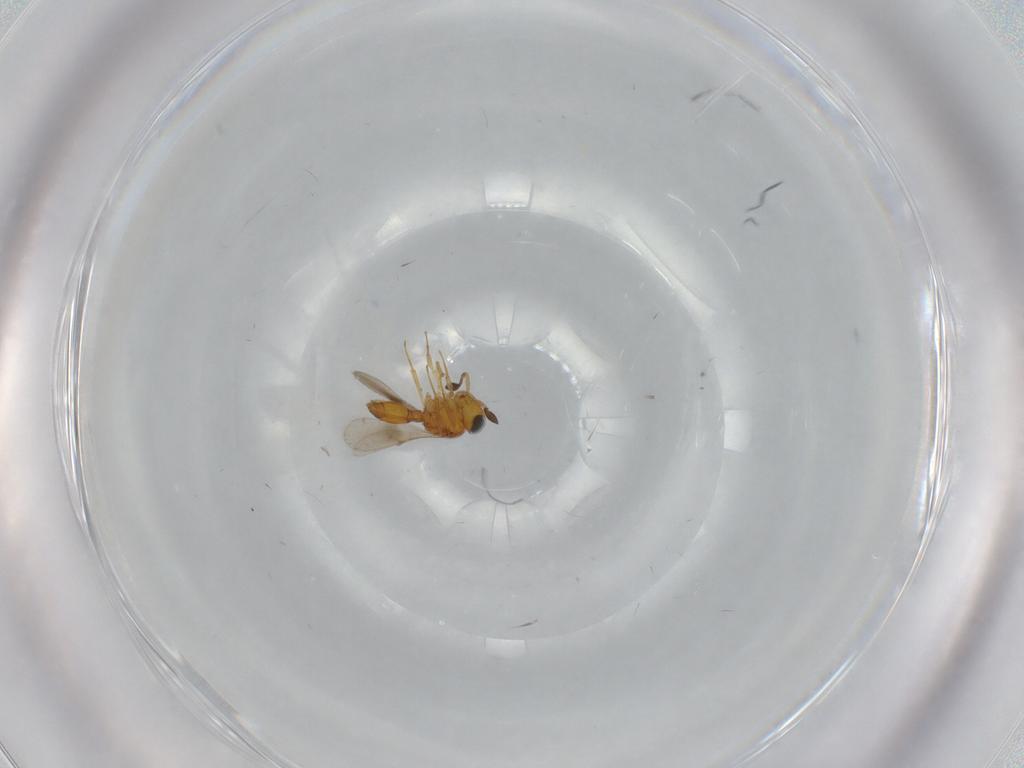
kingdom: Animalia
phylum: Arthropoda
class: Insecta
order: Hymenoptera
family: Scelionidae
